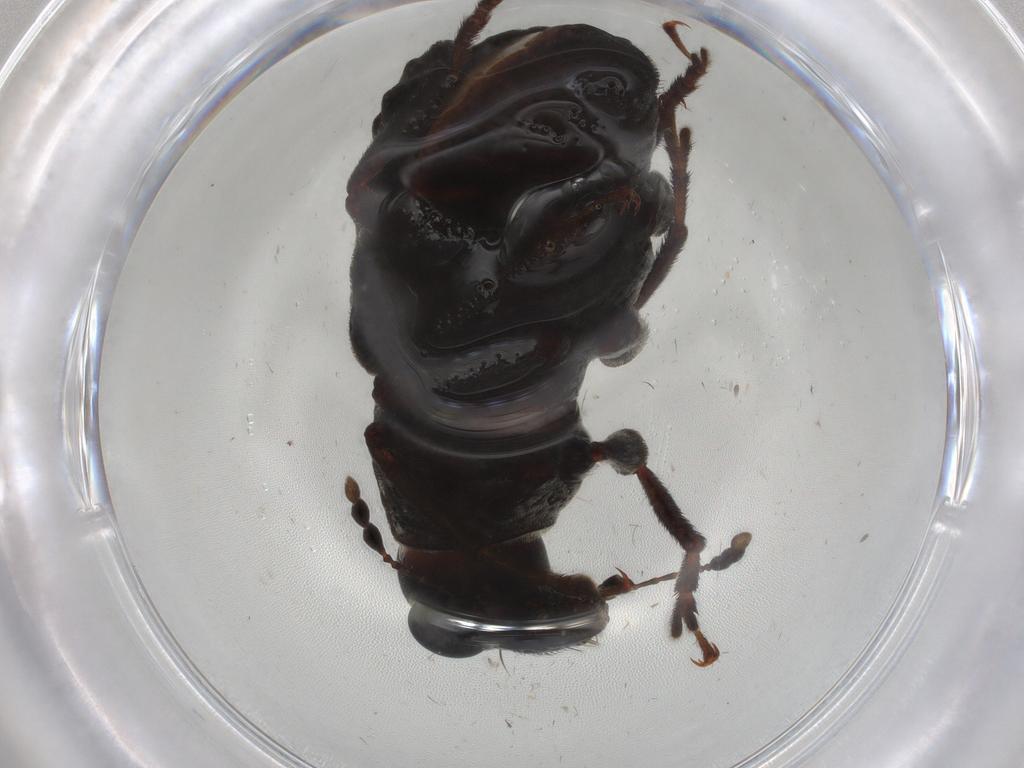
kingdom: Animalia
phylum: Arthropoda
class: Insecta
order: Coleoptera
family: Anthribidae
